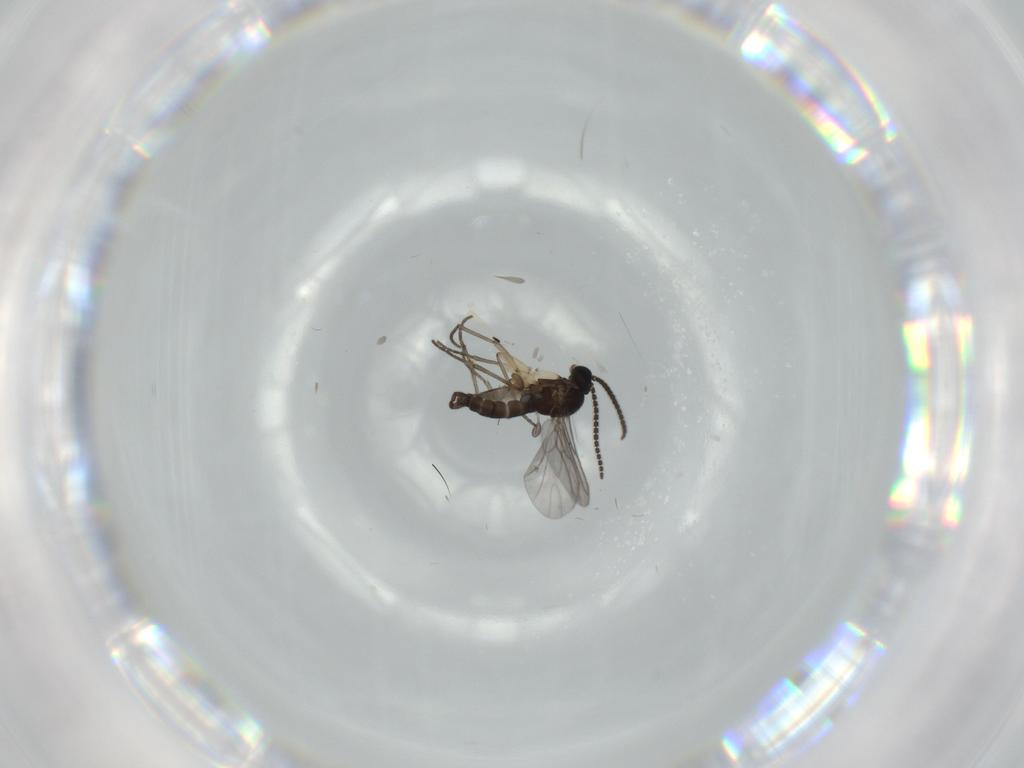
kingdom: Animalia
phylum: Arthropoda
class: Insecta
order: Diptera
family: Sciaridae
